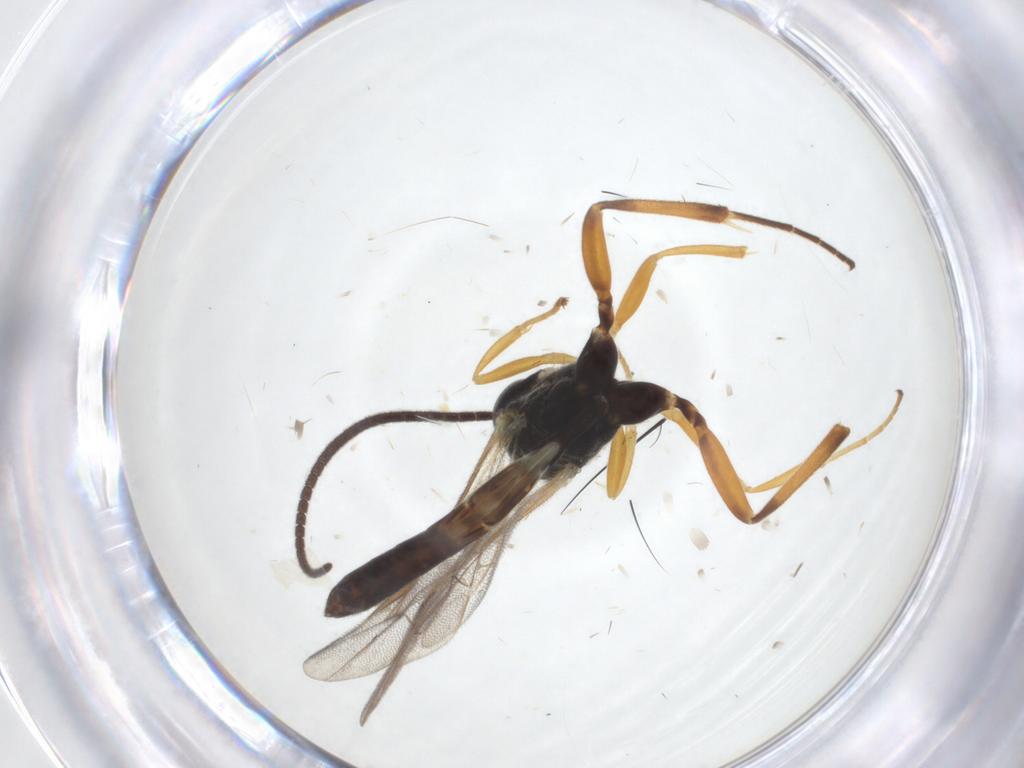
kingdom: Animalia
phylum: Arthropoda
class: Insecta
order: Hymenoptera
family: Ichneumonidae
